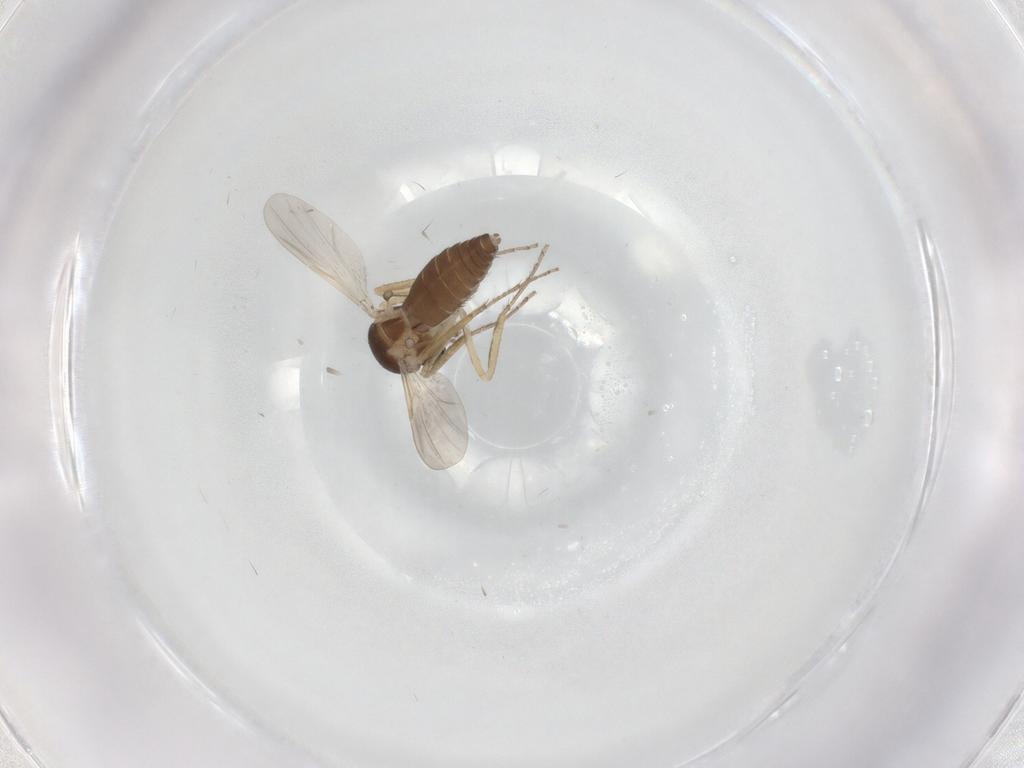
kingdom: Animalia
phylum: Arthropoda
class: Insecta
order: Diptera
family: Ceratopogonidae
